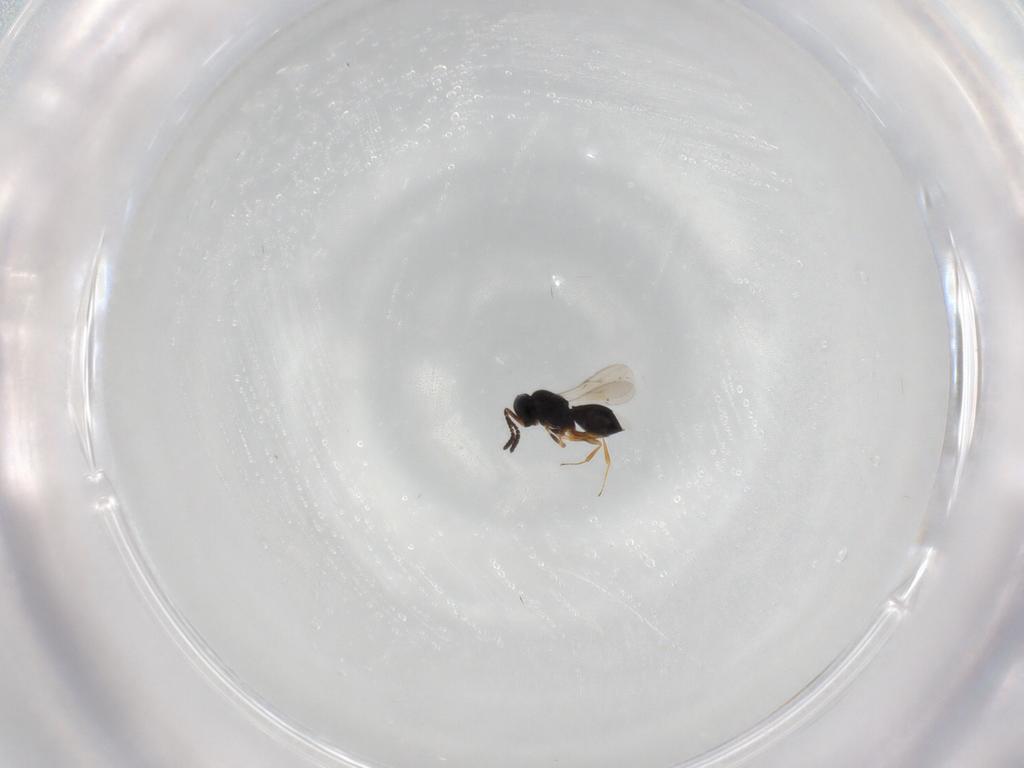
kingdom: Animalia
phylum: Arthropoda
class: Insecta
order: Hymenoptera
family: Scelionidae
